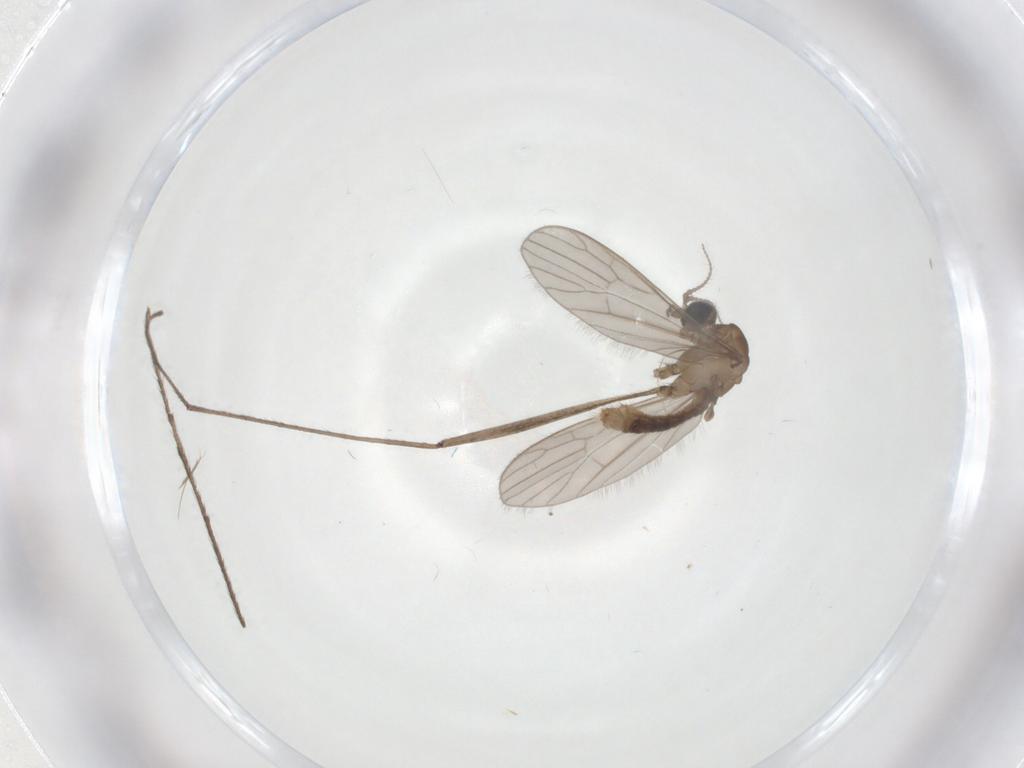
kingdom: Animalia
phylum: Arthropoda
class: Insecta
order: Diptera
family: Limoniidae
